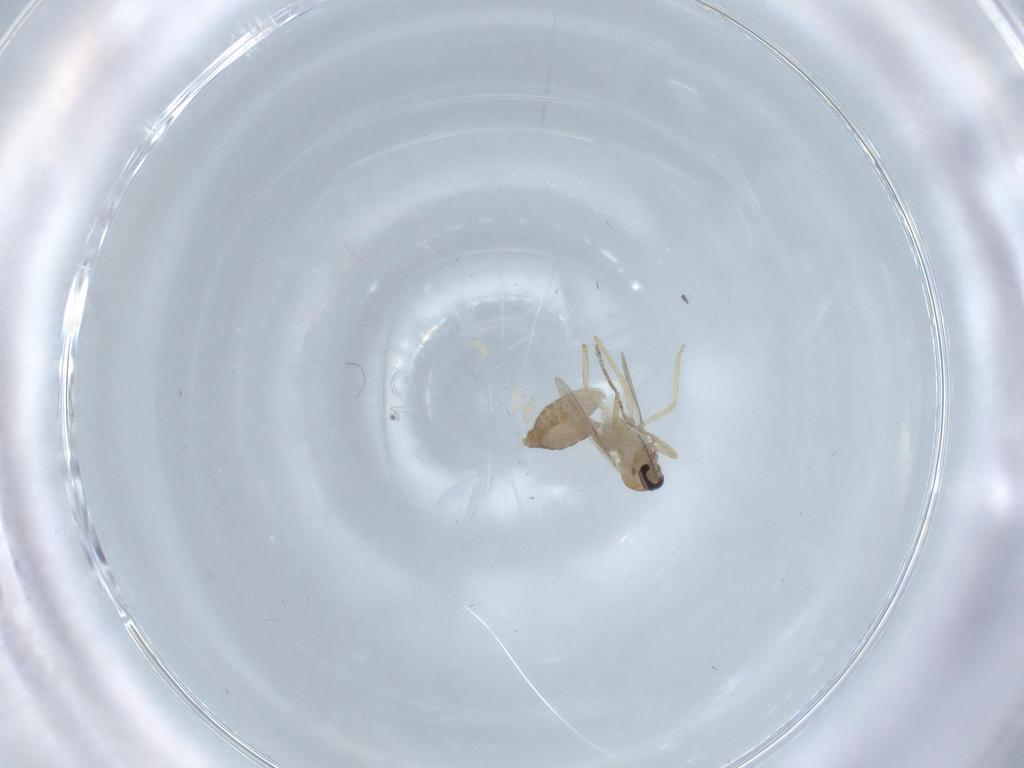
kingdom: Animalia
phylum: Arthropoda
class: Insecta
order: Diptera
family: Ceratopogonidae
